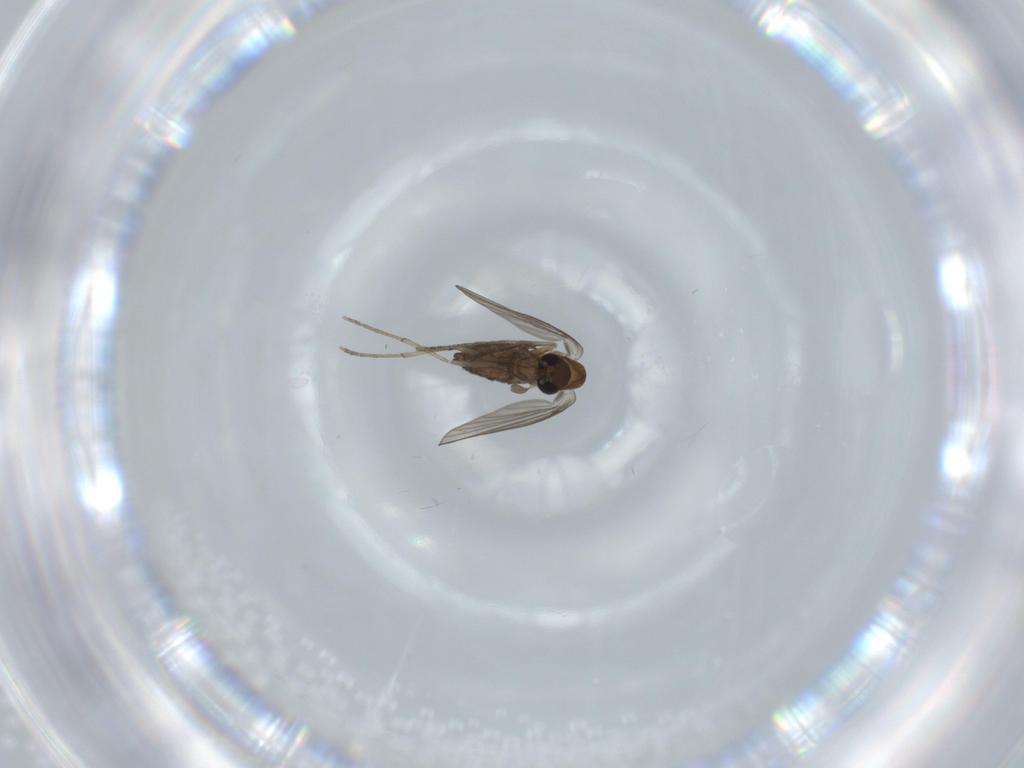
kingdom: Animalia
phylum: Arthropoda
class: Insecta
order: Diptera
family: Psychodidae
